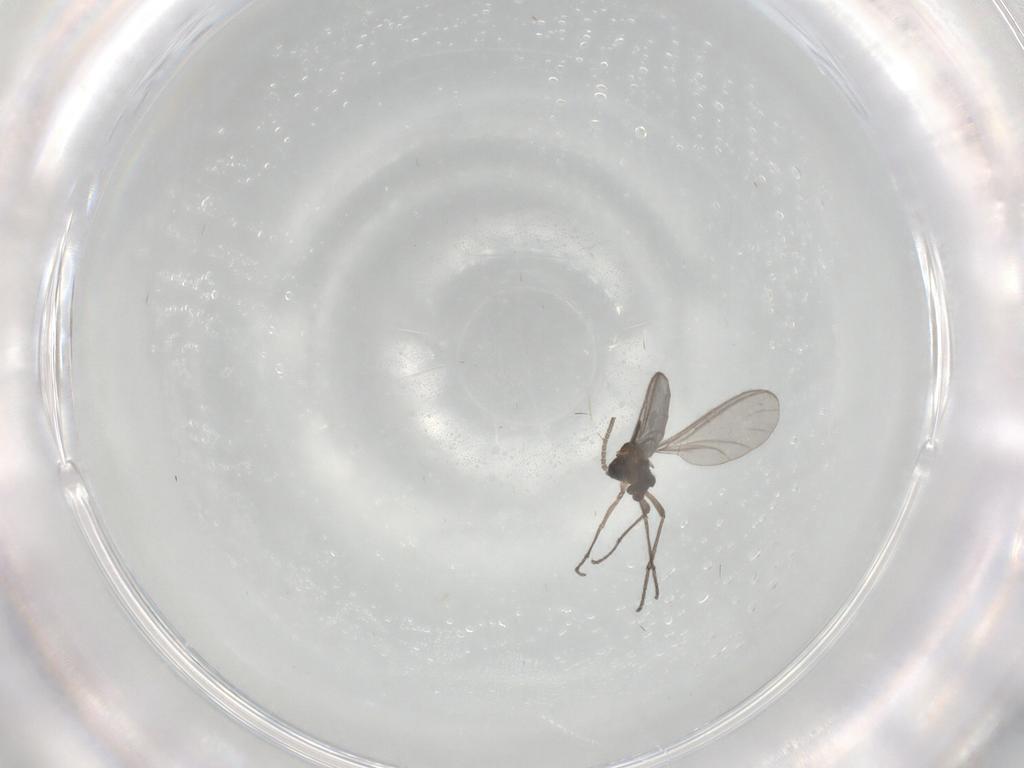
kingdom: Animalia
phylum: Arthropoda
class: Insecta
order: Diptera
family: Sciaridae
